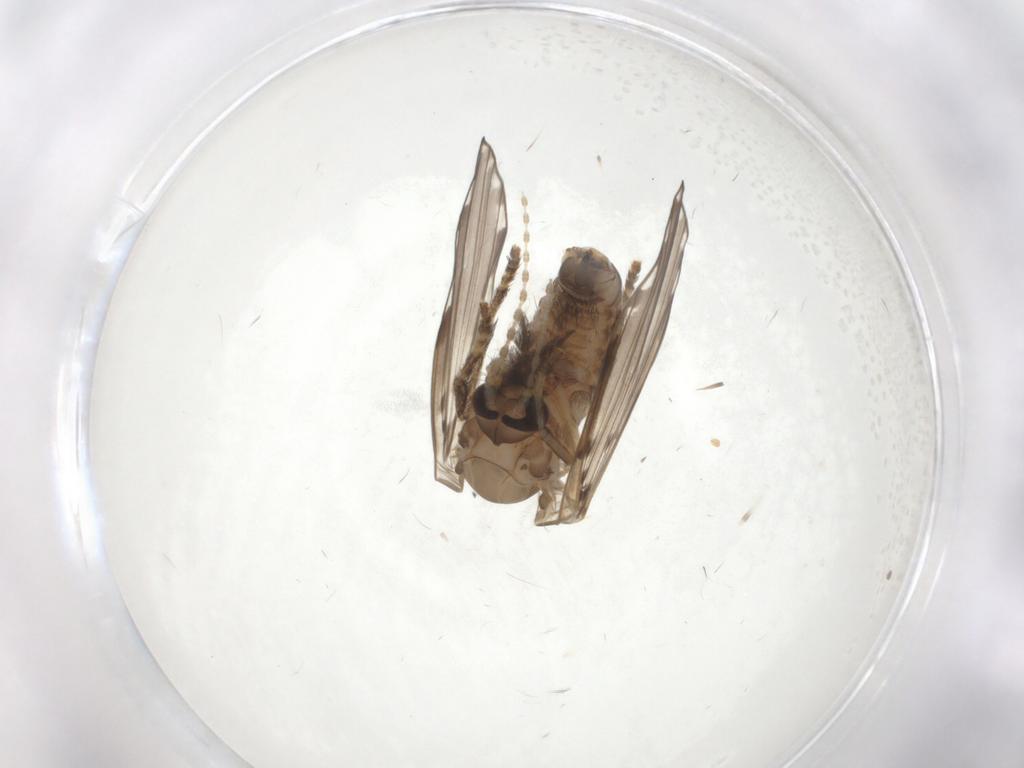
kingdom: Animalia
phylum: Arthropoda
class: Insecta
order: Diptera
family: Psychodidae
